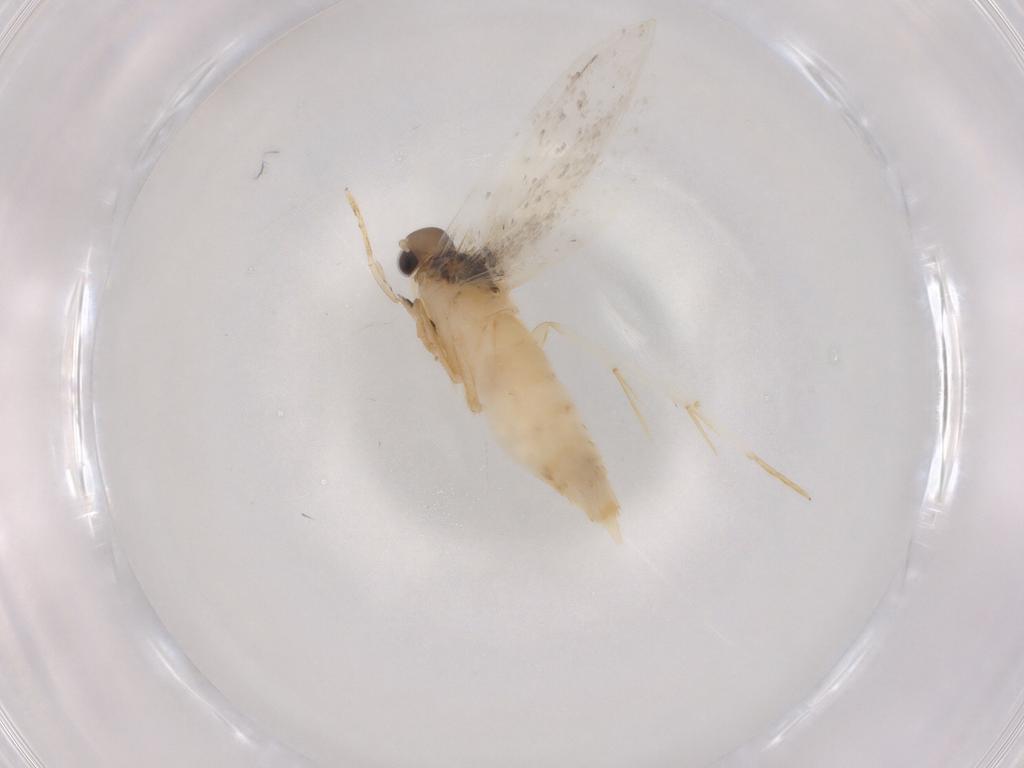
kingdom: Animalia
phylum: Arthropoda
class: Insecta
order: Lepidoptera
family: Autostichidae
